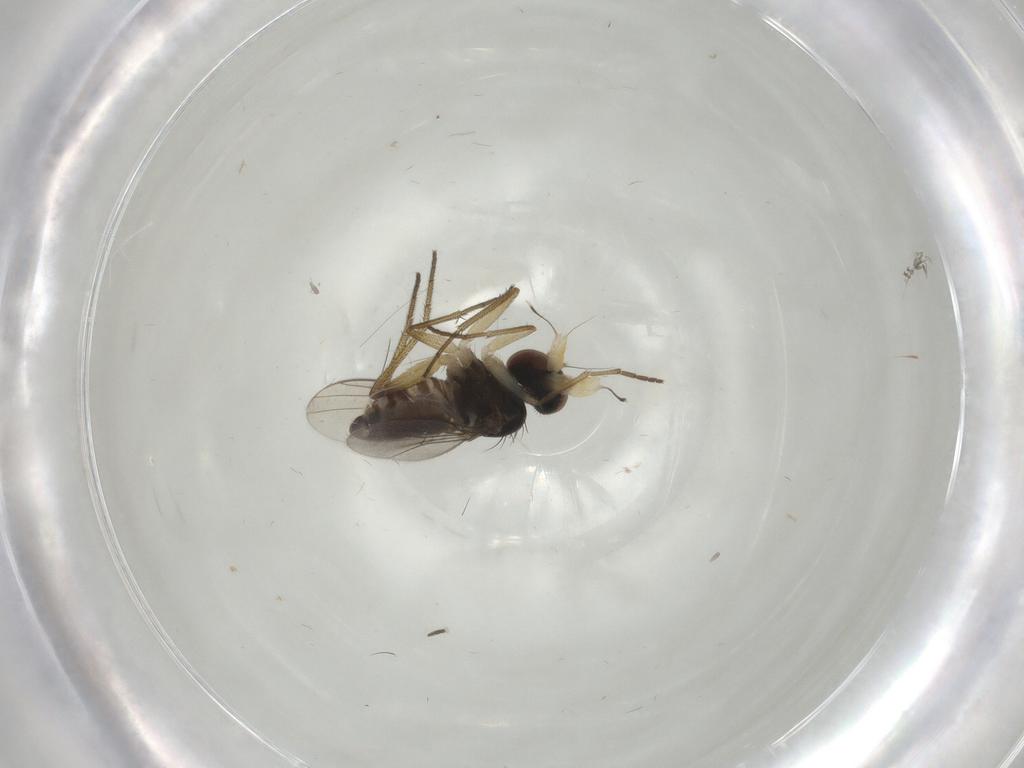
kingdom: Animalia
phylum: Arthropoda
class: Insecta
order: Diptera
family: Dolichopodidae
